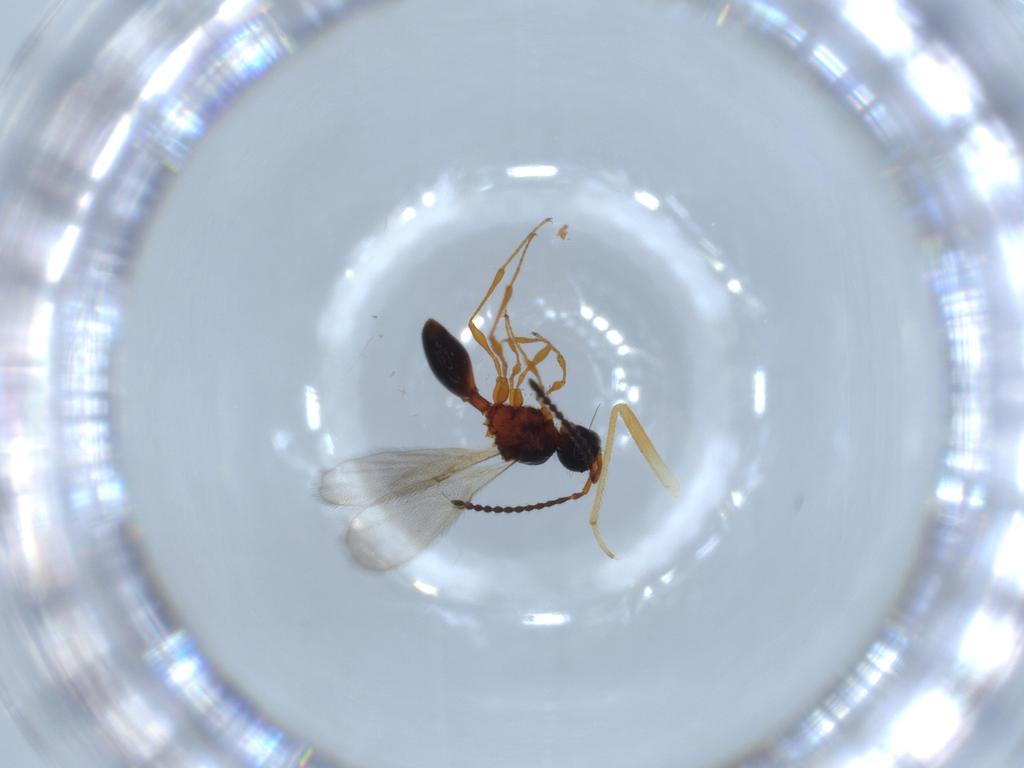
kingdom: Animalia
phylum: Arthropoda
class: Insecta
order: Hymenoptera
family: Diapriidae
